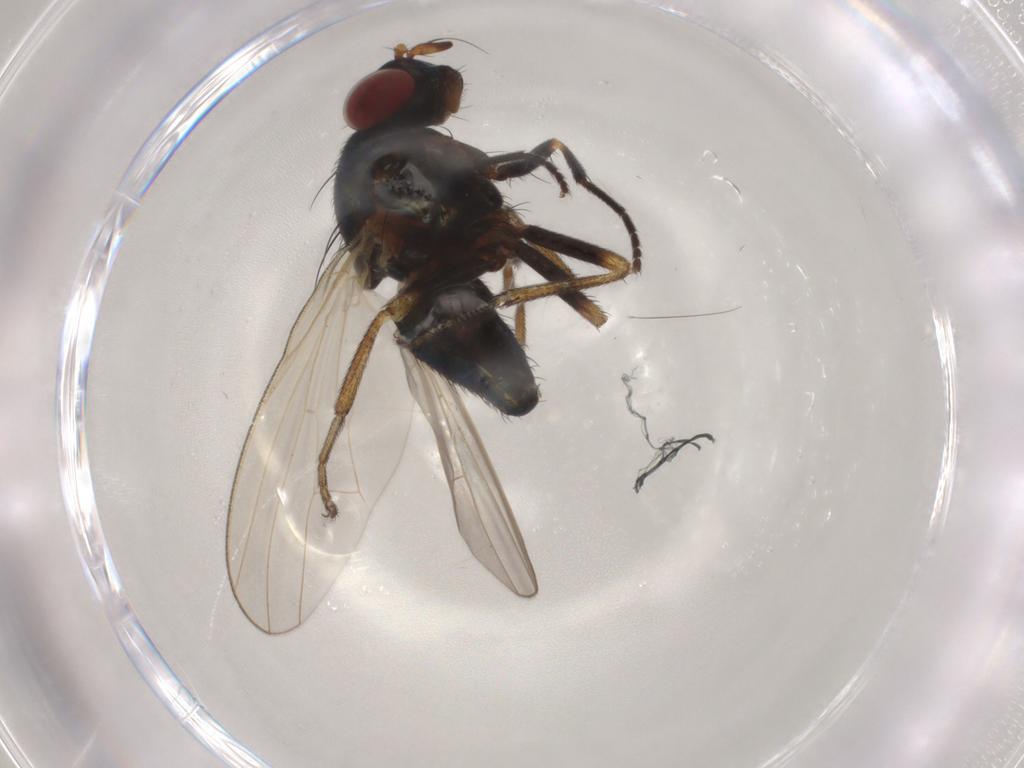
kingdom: Animalia
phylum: Arthropoda
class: Insecta
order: Diptera
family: Lauxaniidae
